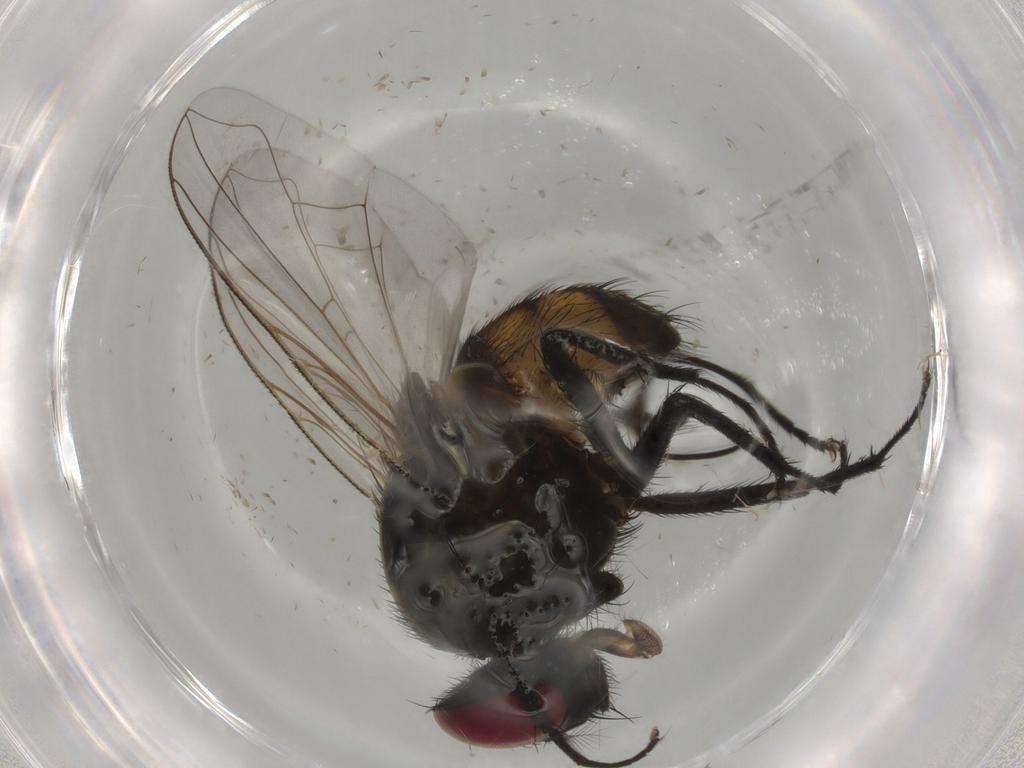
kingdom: Animalia
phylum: Arthropoda
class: Insecta
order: Diptera
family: Muscidae
